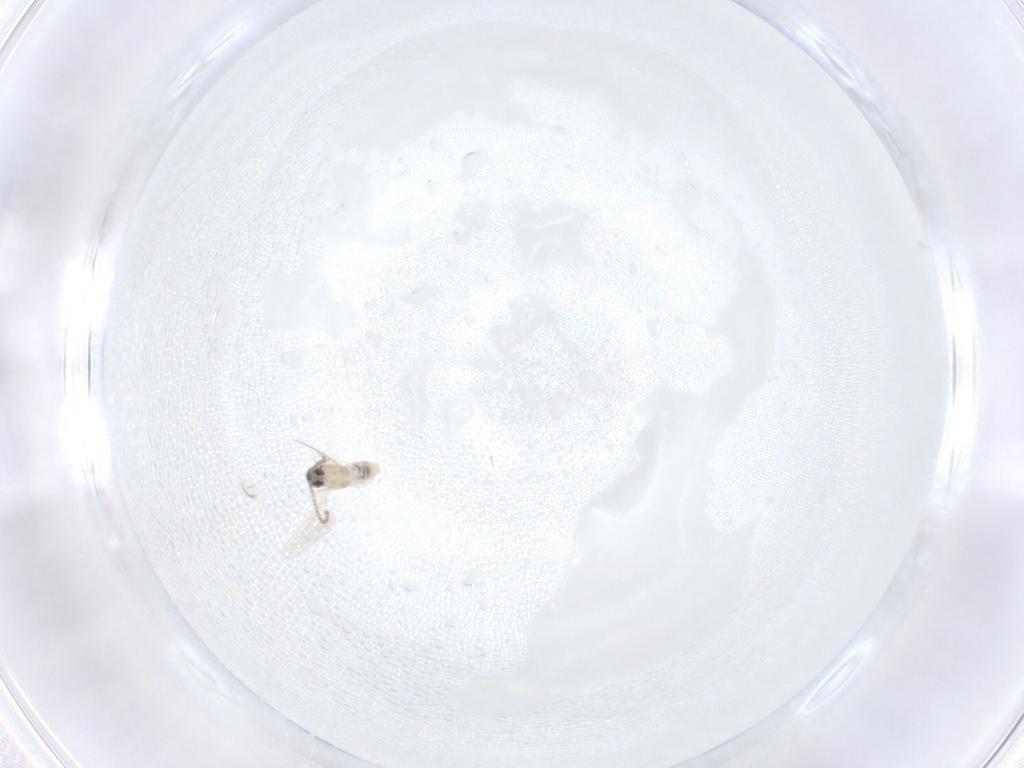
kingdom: Animalia
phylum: Arthropoda
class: Insecta
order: Diptera
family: Cecidomyiidae
